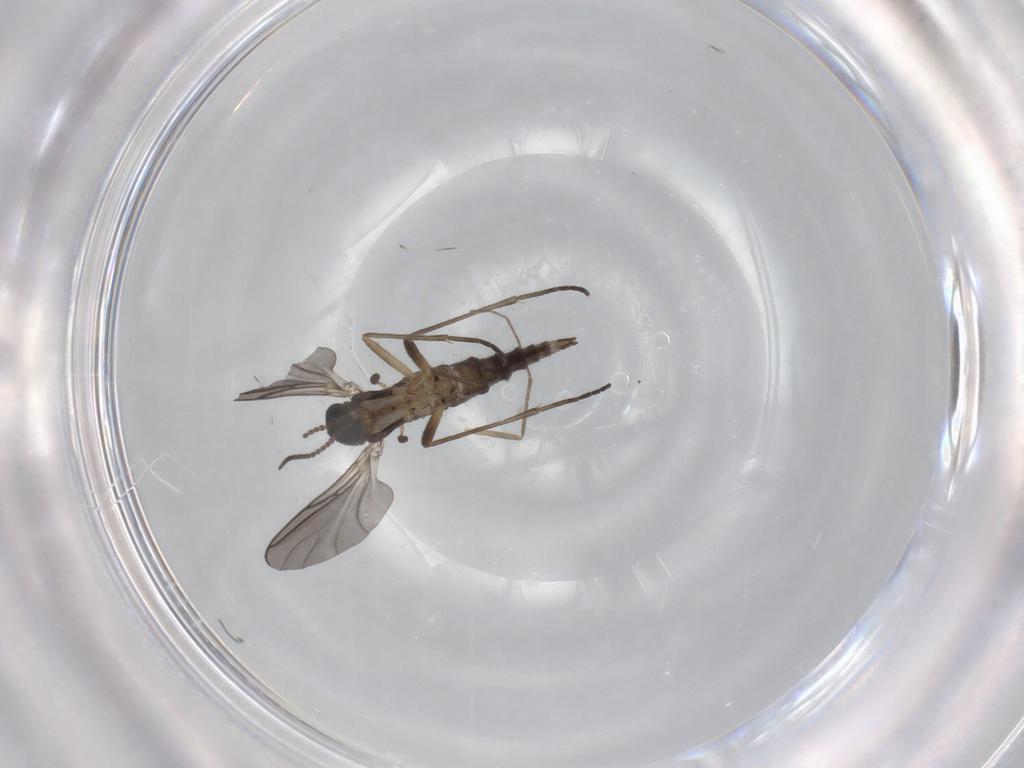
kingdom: Animalia
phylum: Arthropoda
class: Insecta
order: Diptera
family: Sciaridae
